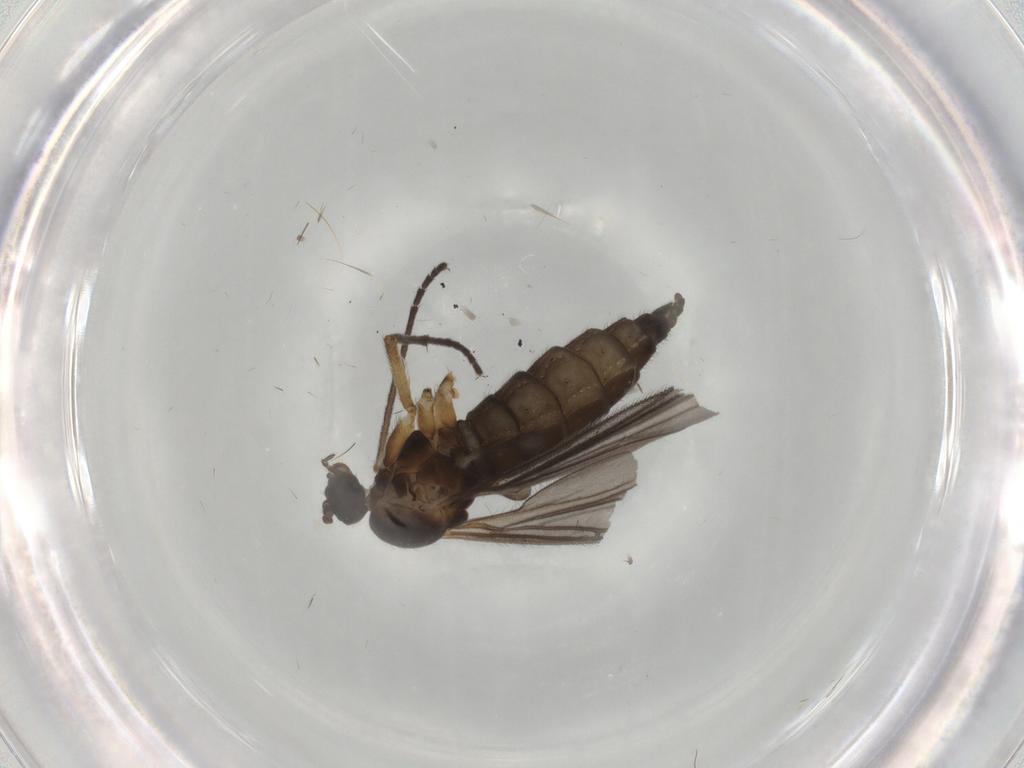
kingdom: Animalia
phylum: Arthropoda
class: Insecta
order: Diptera
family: Sciaridae
